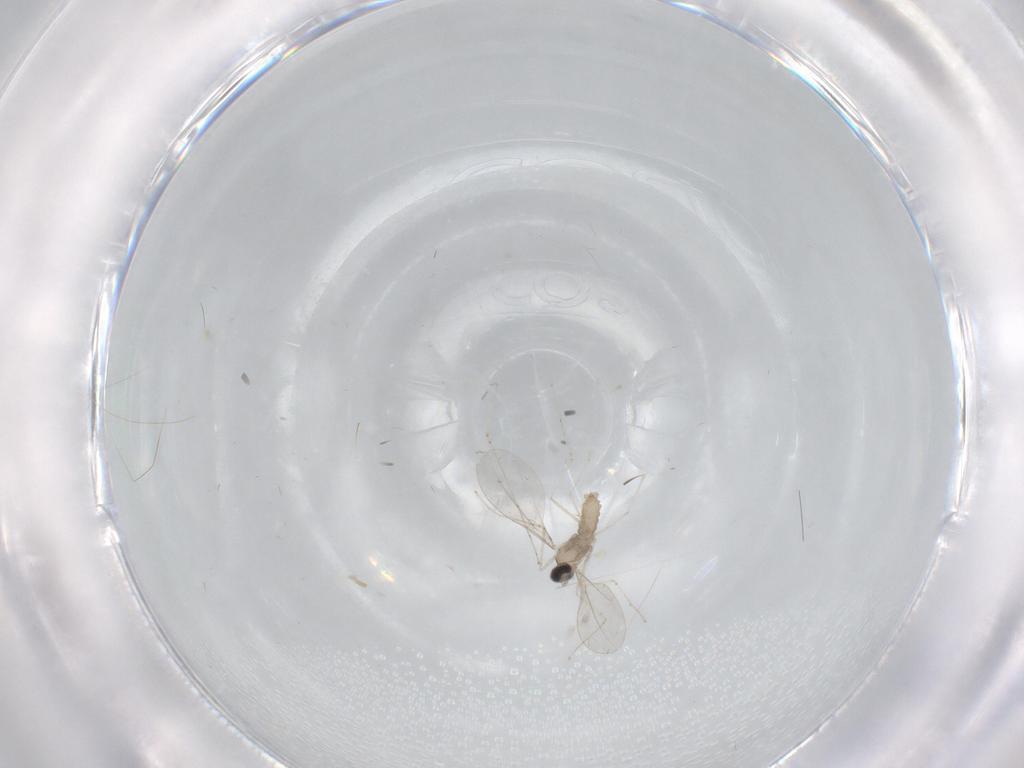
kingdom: Animalia
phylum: Arthropoda
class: Insecta
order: Diptera
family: Cecidomyiidae
